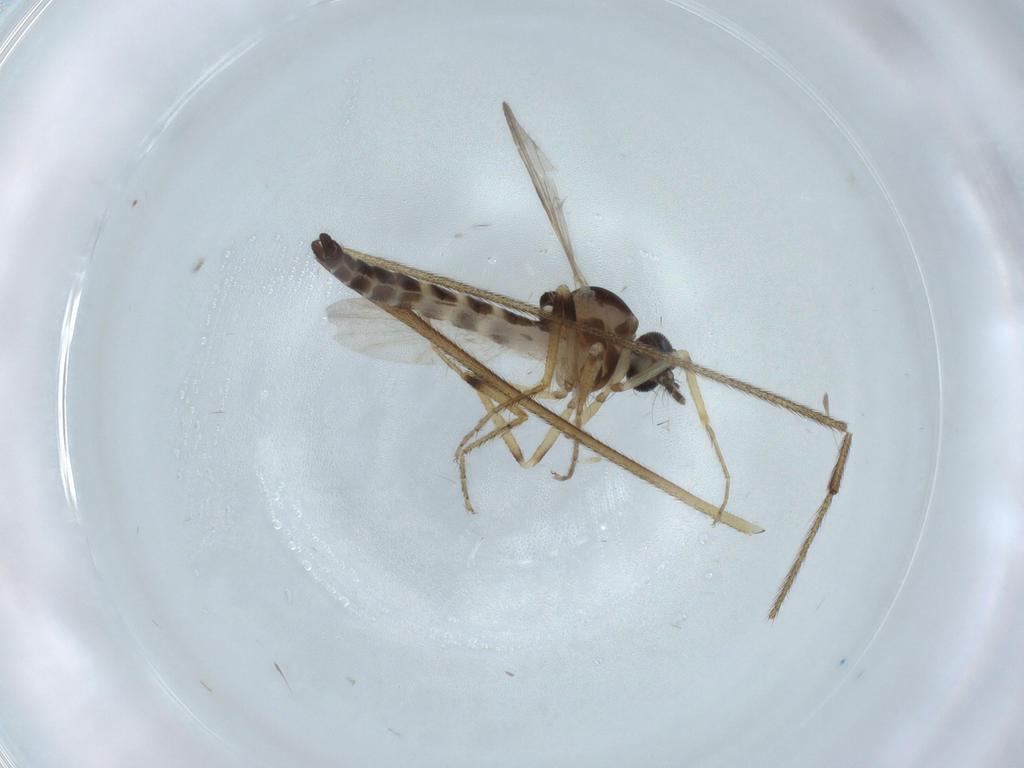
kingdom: Animalia
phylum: Arthropoda
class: Insecta
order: Diptera
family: Ceratopogonidae
